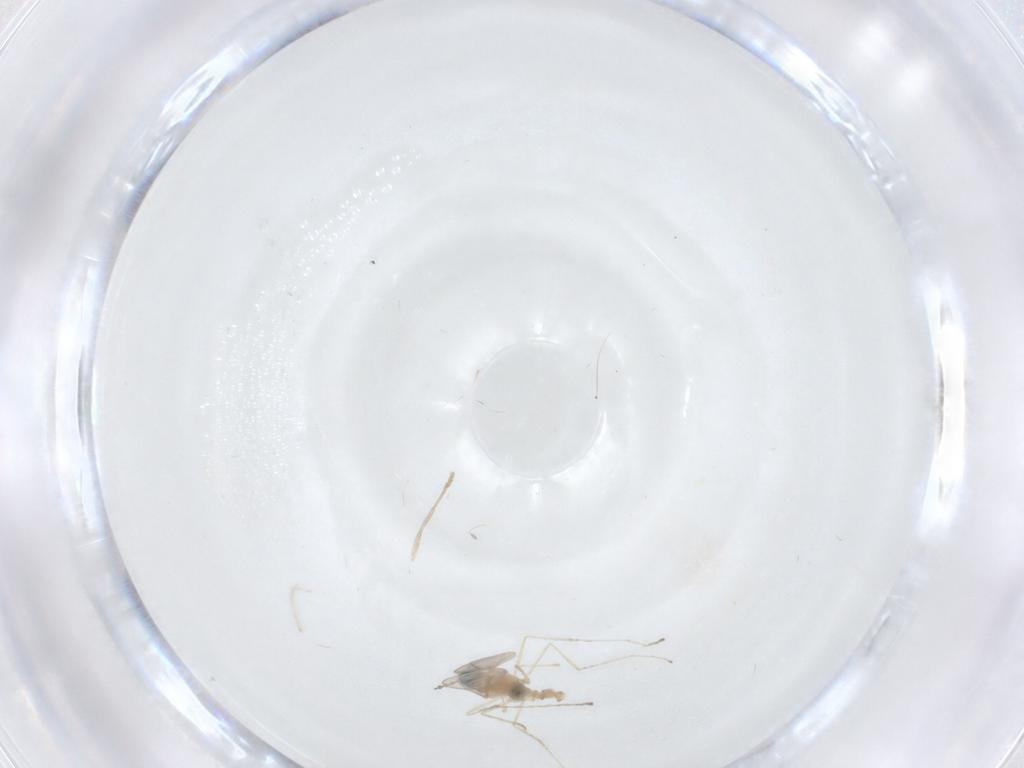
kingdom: Animalia
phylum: Arthropoda
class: Insecta
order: Diptera
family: Cecidomyiidae
